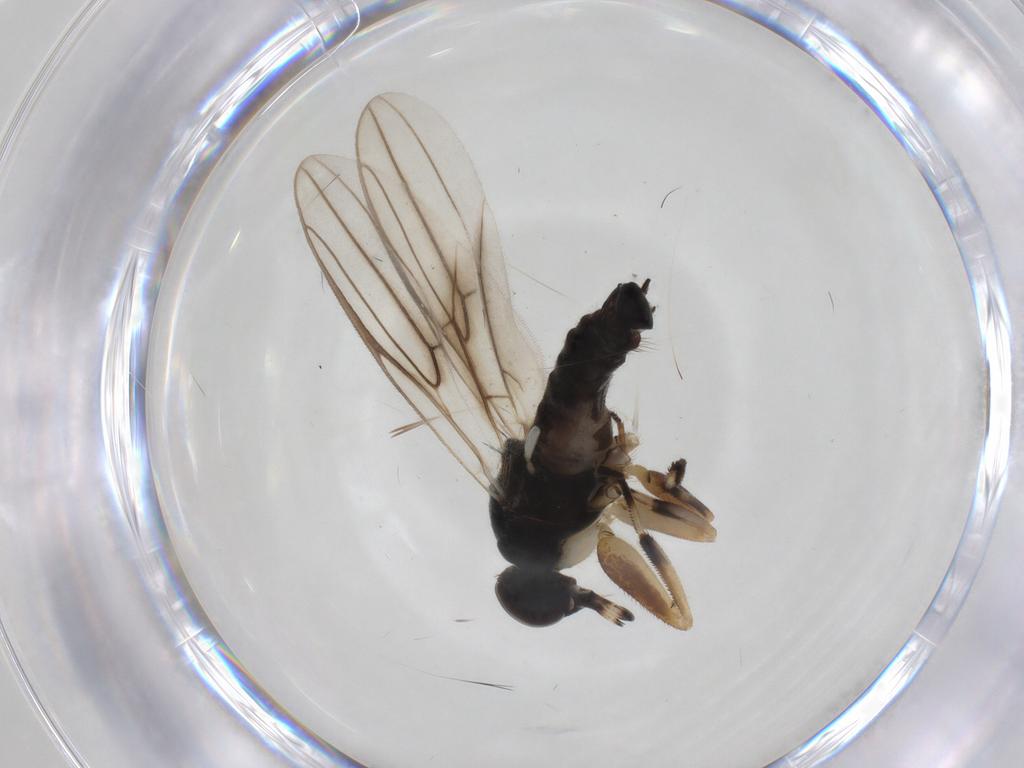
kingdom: Animalia
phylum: Arthropoda
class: Insecta
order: Diptera
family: Hybotidae
